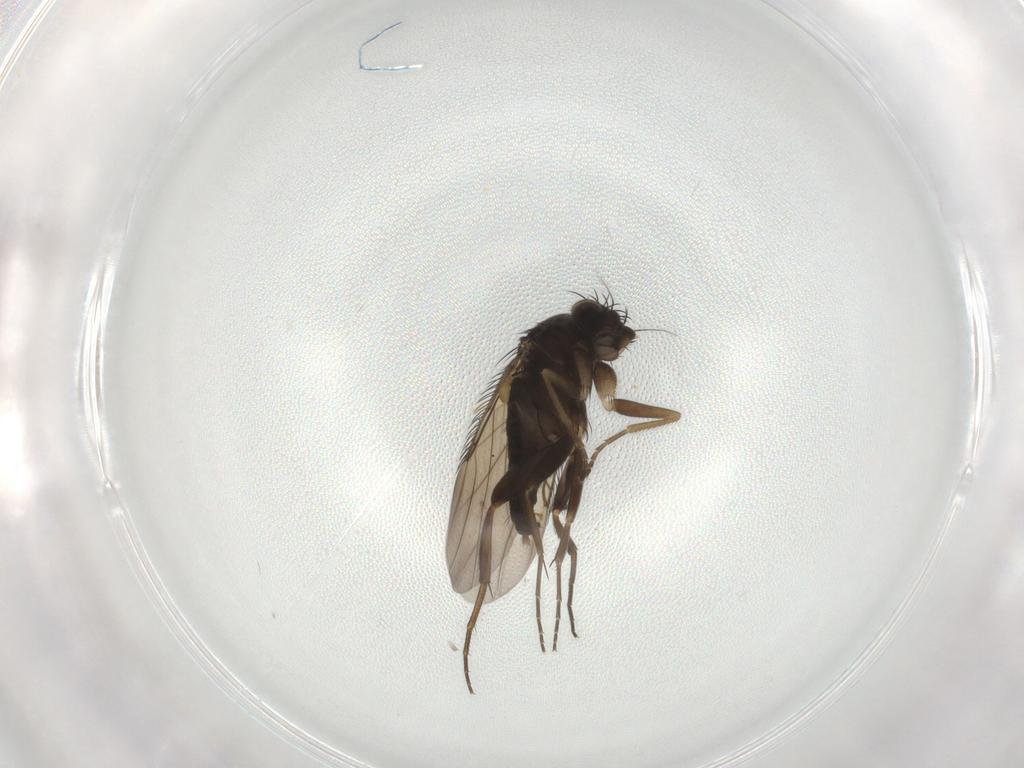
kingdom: Animalia
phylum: Arthropoda
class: Insecta
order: Diptera
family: Phoridae
